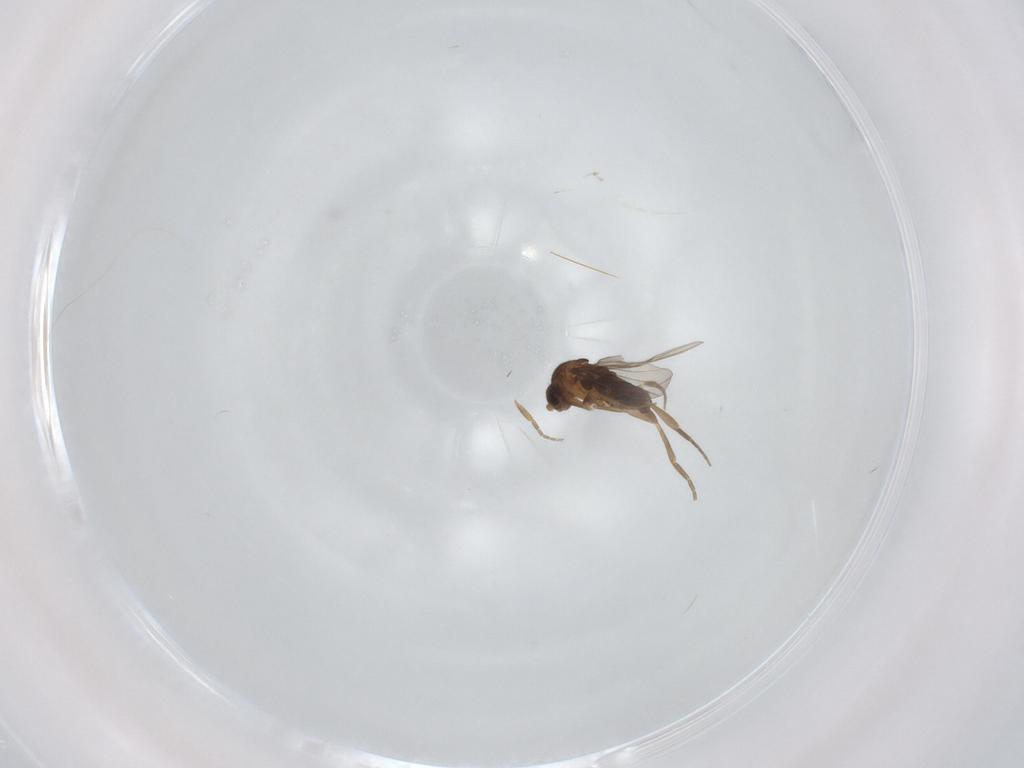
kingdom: Animalia
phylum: Arthropoda
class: Insecta
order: Diptera
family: Phoridae
